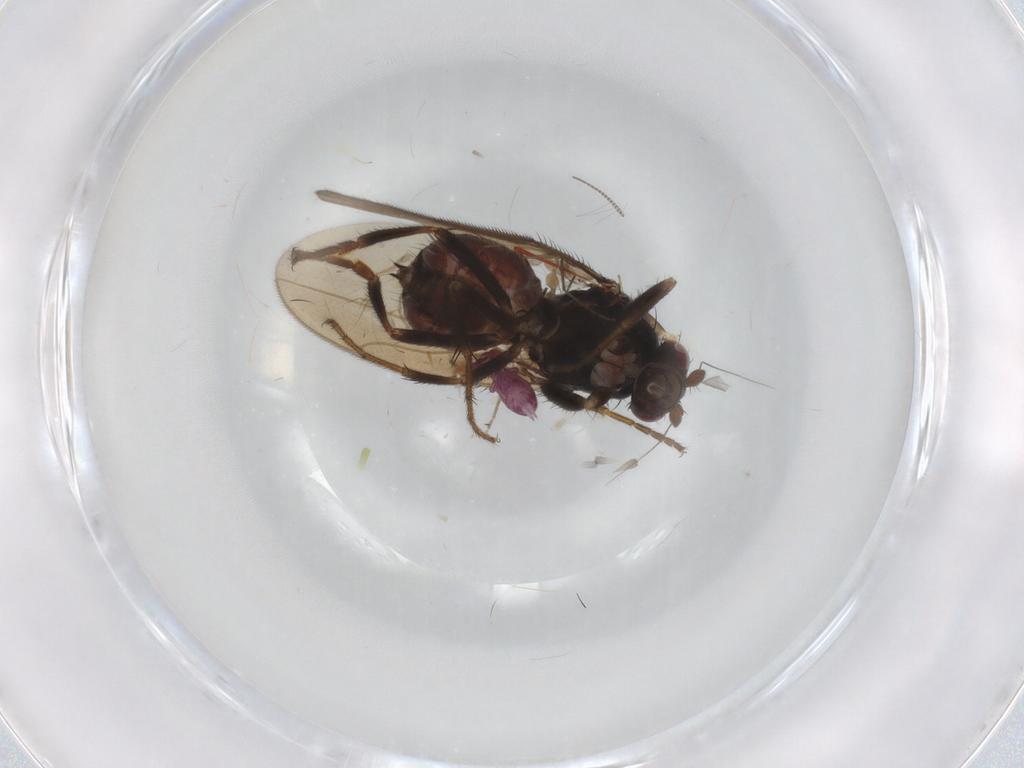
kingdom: Animalia
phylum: Arthropoda
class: Insecta
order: Diptera
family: Sphaeroceridae
